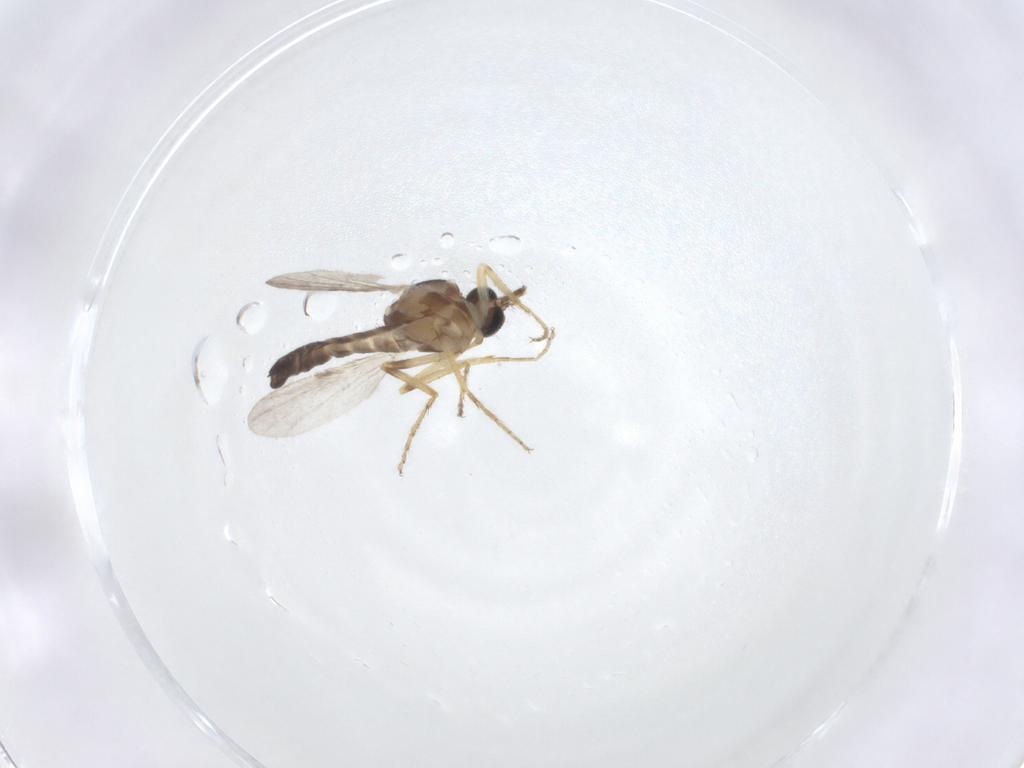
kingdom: Animalia
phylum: Arthropoda
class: Insecta
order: Diptera
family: Ceratopogonidae
